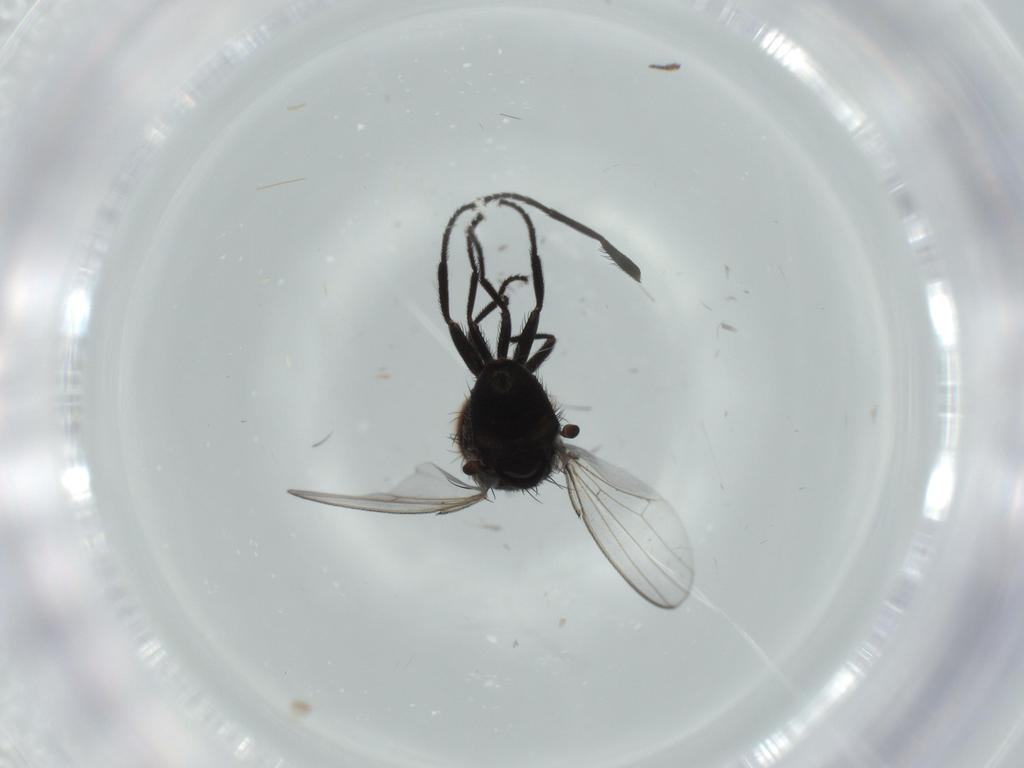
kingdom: Animalia
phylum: Arthropoda
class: Insecta
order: Diptera
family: Milichiidae
